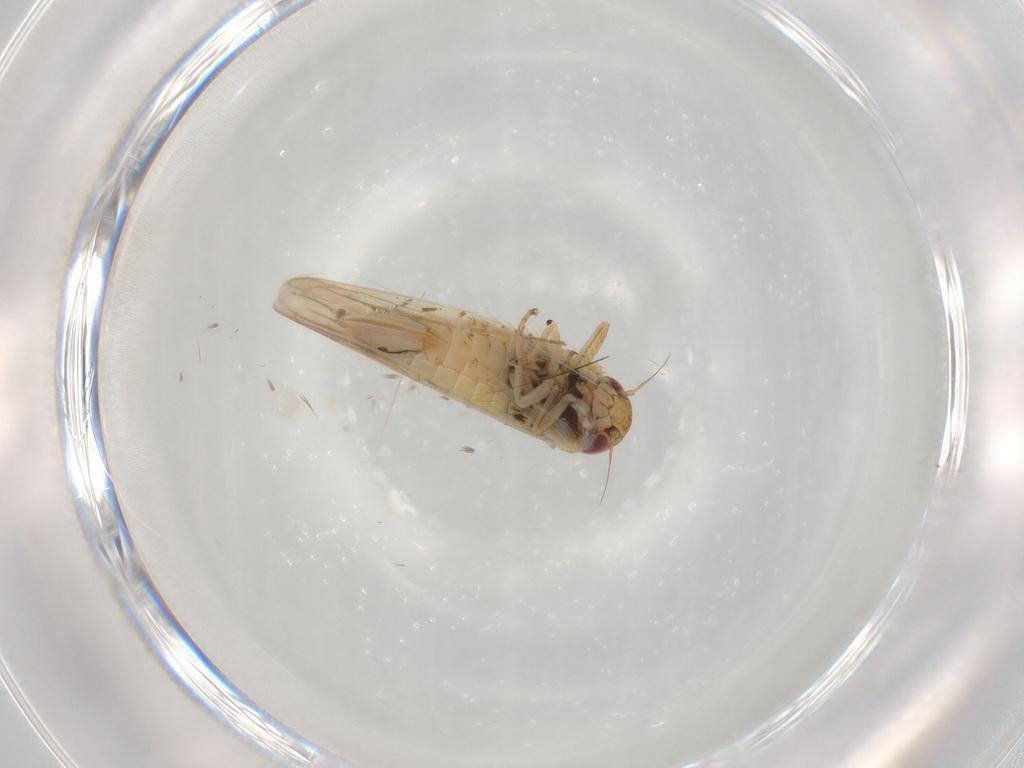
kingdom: Animalia
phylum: Arthropoda
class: Insecta
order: Hemiptera
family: Cicadellidae
